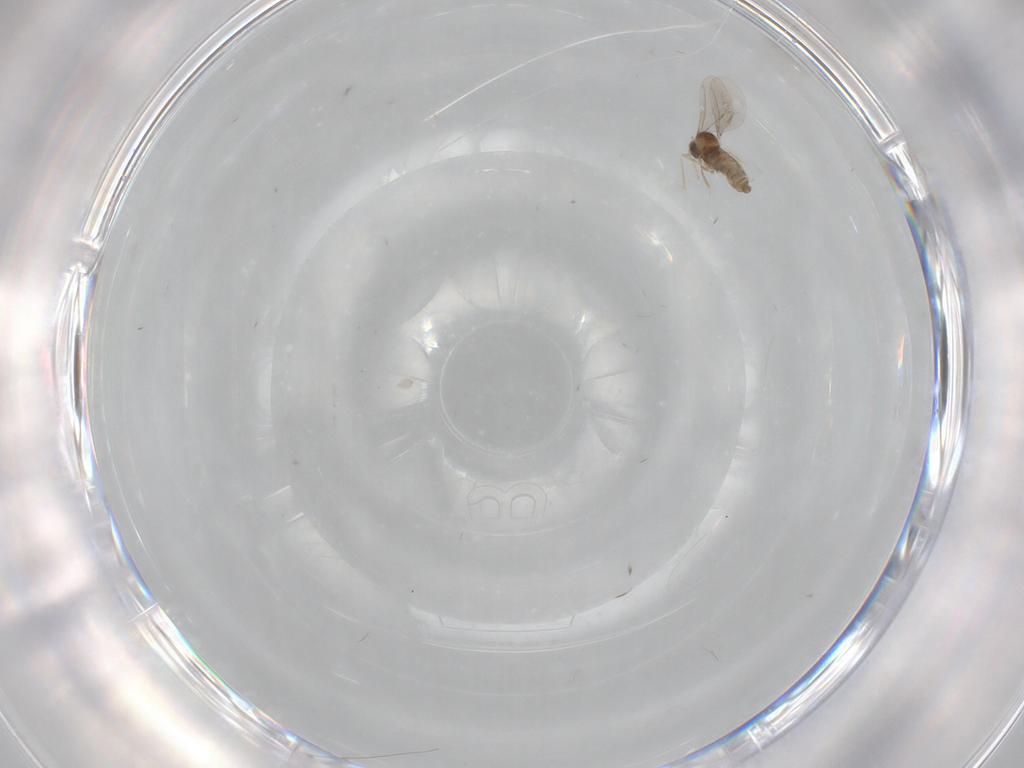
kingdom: Animalia
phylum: Arthropoda
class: Insecta
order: Diptera
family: Cecidomyiidae
